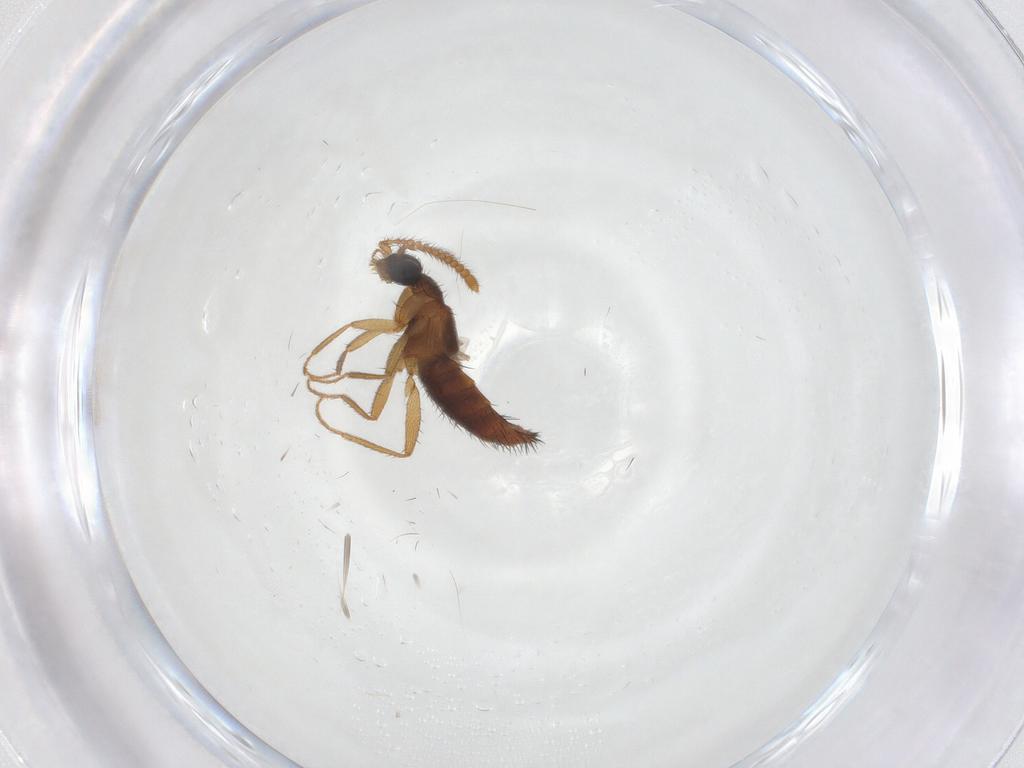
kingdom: Animalia
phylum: Arthropoda
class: Insecta
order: Coleoptera
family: Staphylinidae
